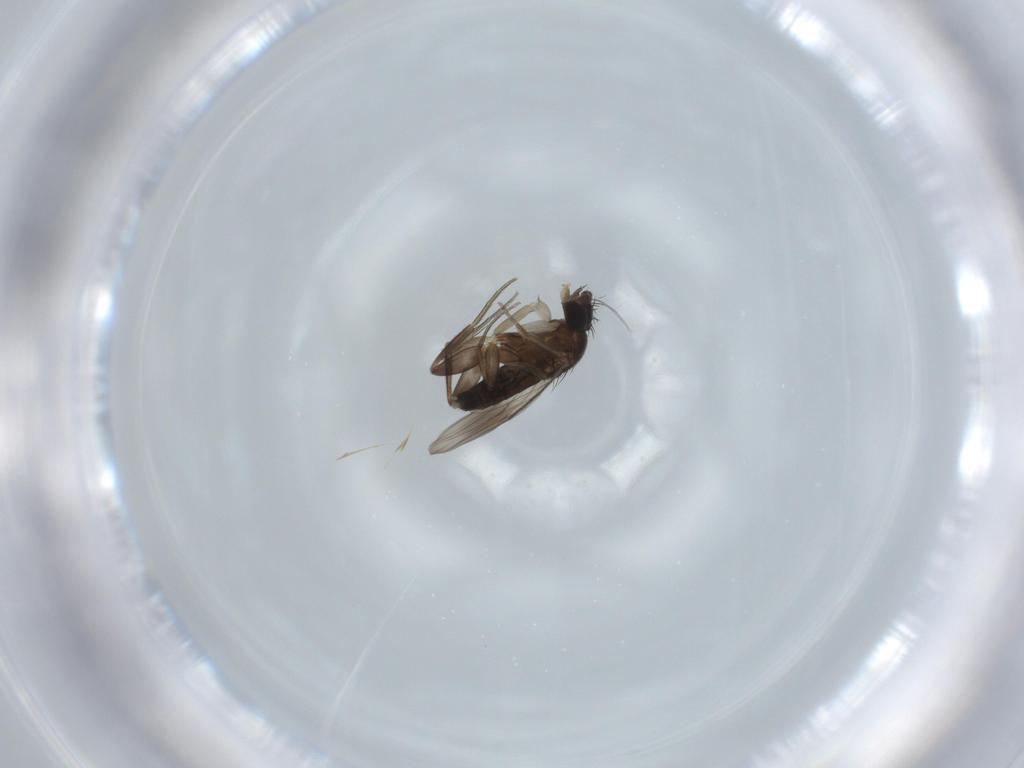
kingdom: Animalia
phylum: Arthropoda
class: Insecta
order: Diptera
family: Phoridae
